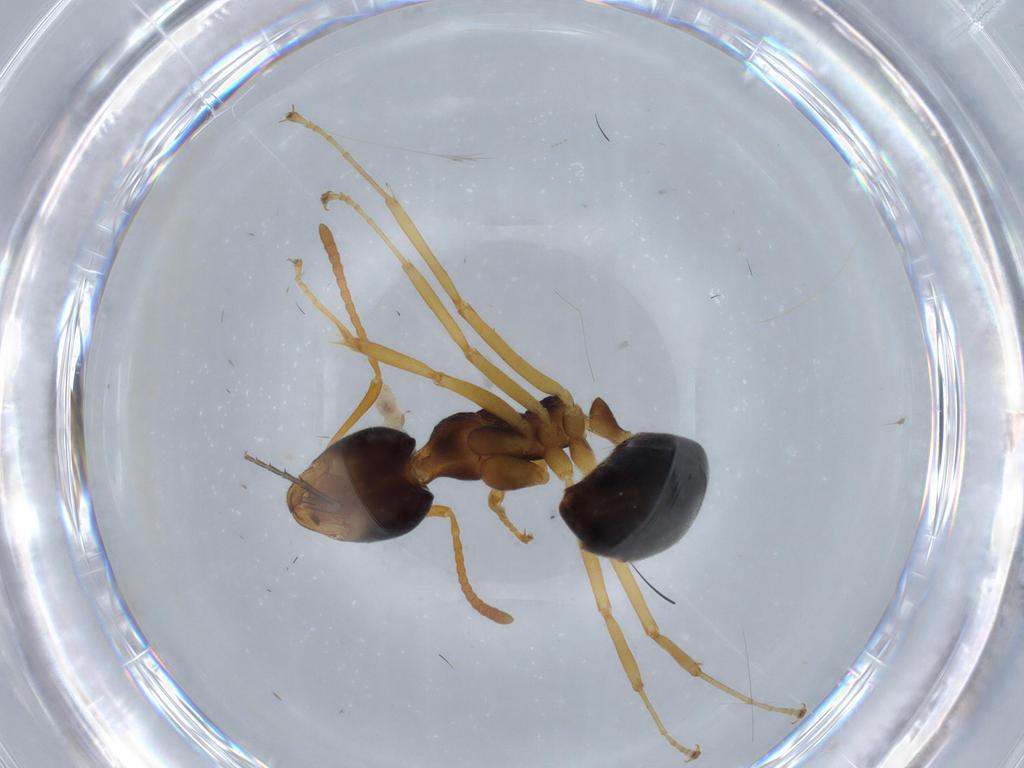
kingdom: Animalia
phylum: Arthropoda
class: Insecta
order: Hymenoptera
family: Formicidae
